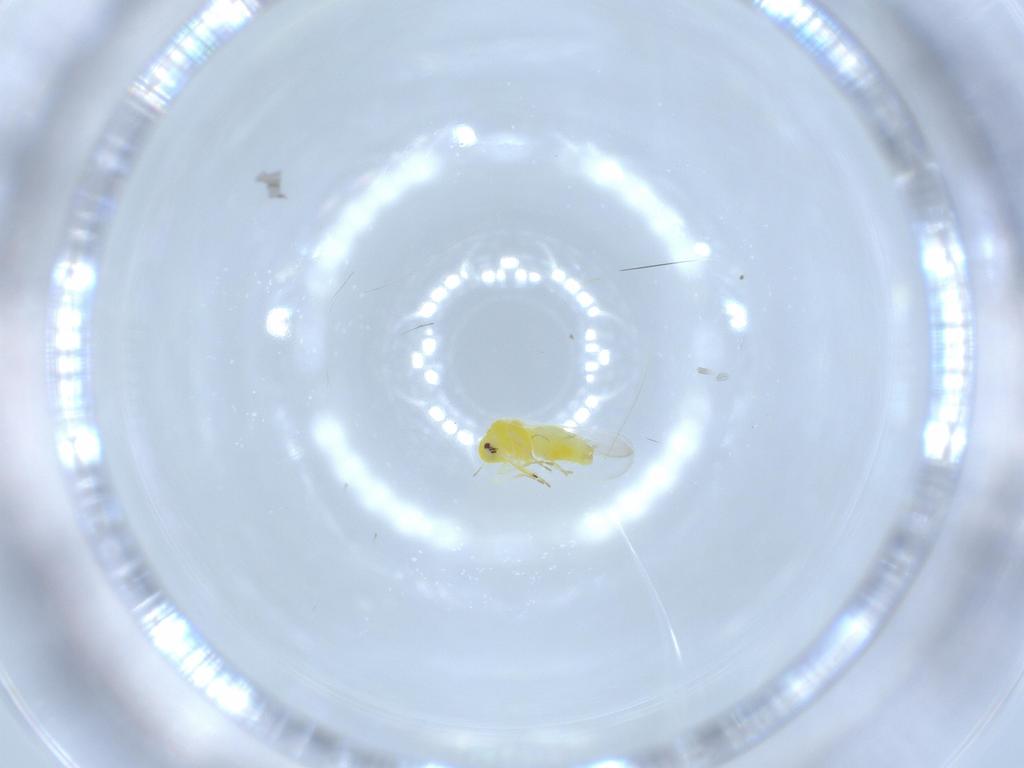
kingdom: Animalia
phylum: Arthropoda
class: Insecta
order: Hemiptera
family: Aleyrodidae
